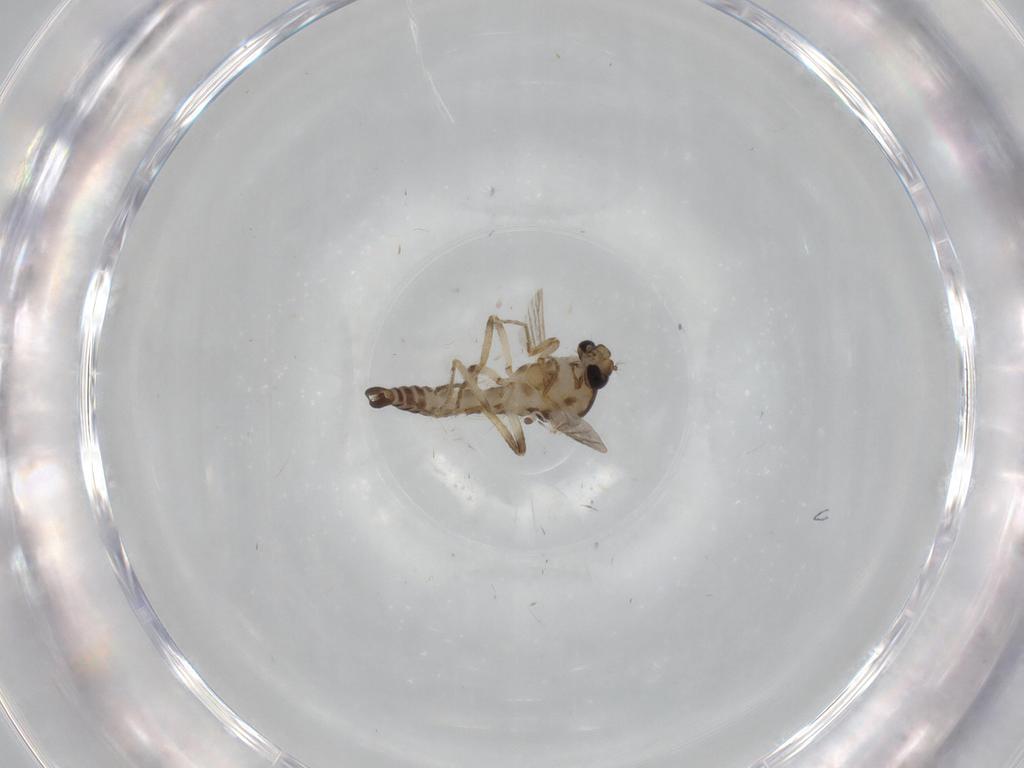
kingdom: Animalia
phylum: Arthropoda
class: Insecta
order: Diptera
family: Ceratopogonidae
